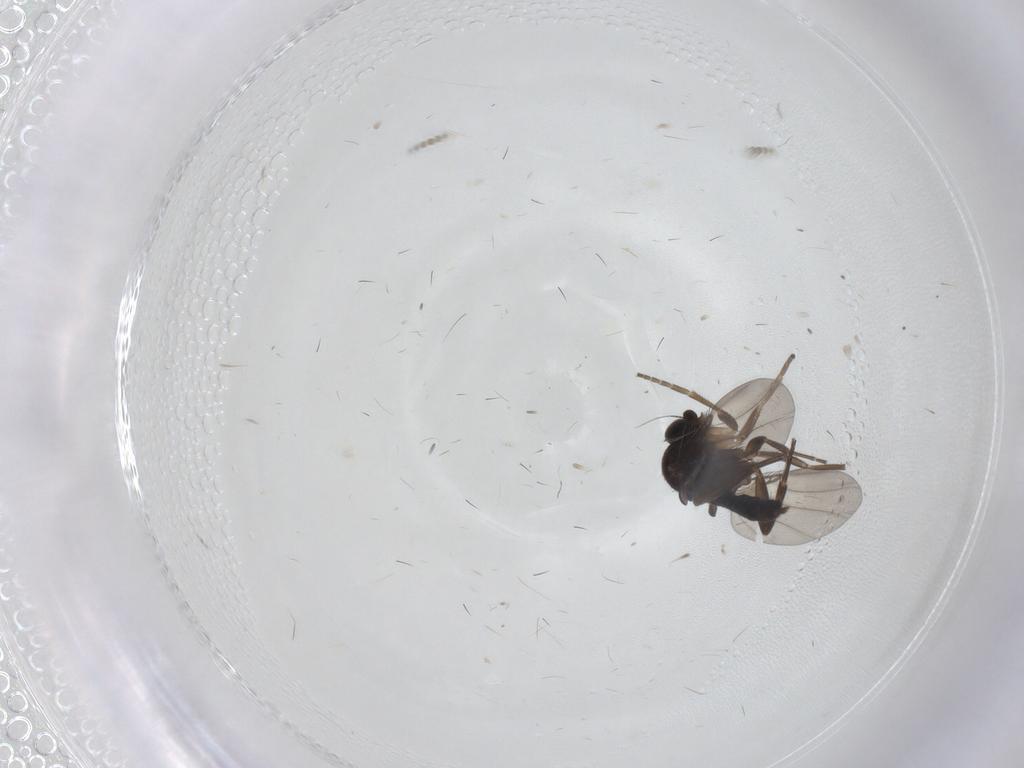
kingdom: Animalia
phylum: Arthropoda
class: Insecta
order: Diptera
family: Phoridae
